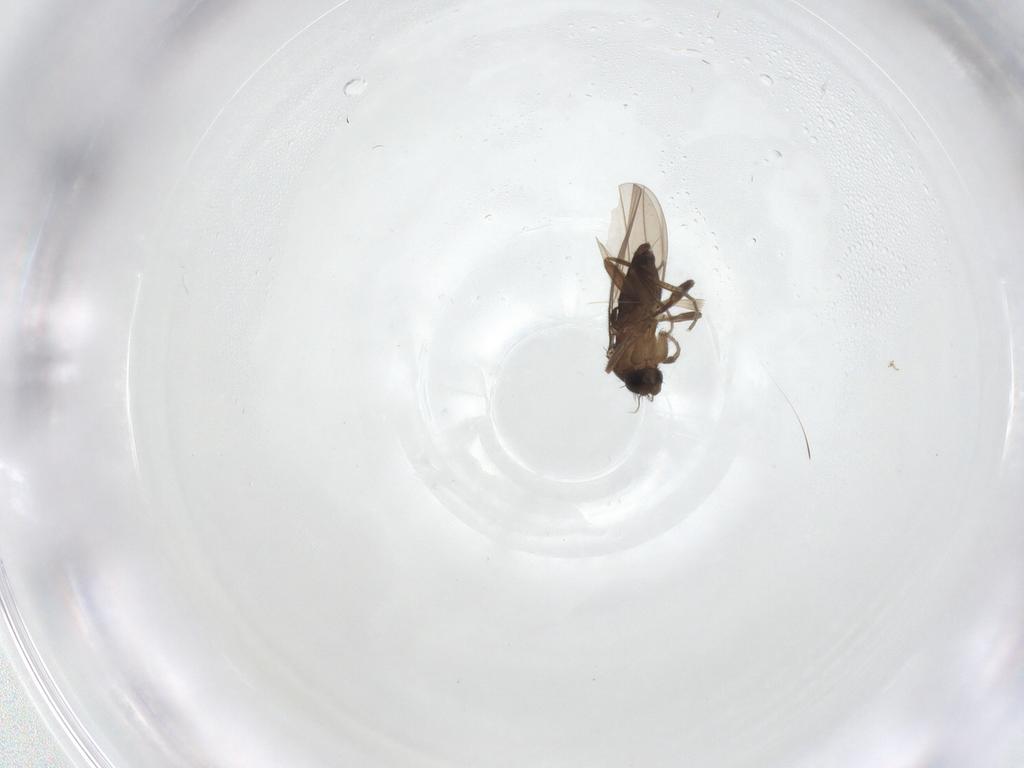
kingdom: Animalia
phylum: Arthropoda
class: Insecta
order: Diptera
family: Phoridae
